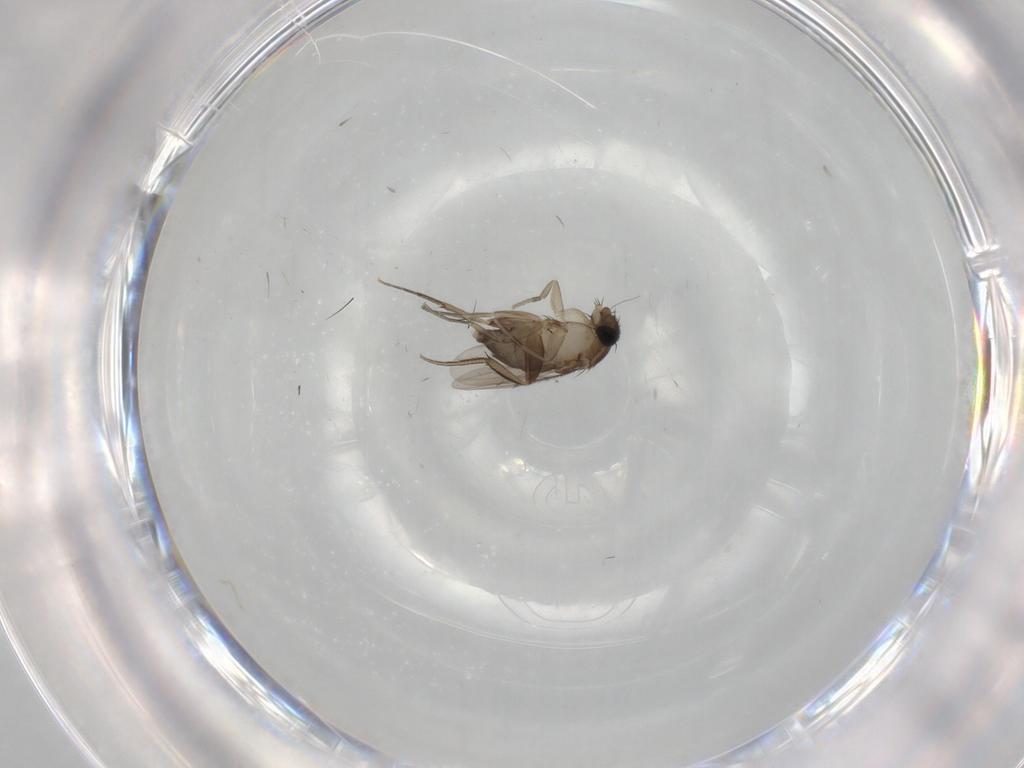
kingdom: Animalia
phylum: Arthropoda
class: Insecta
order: Diptera
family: Phoridae
